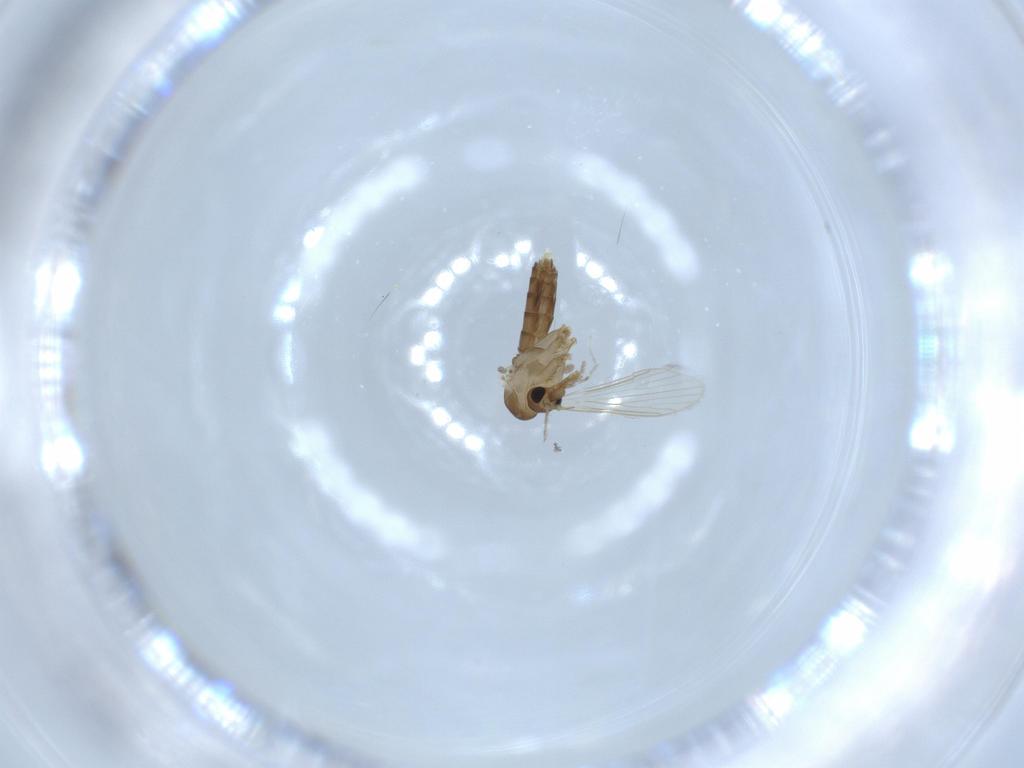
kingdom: Animalia
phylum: Arthropoda
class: Insecta
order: Diptera
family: Psychodidae
